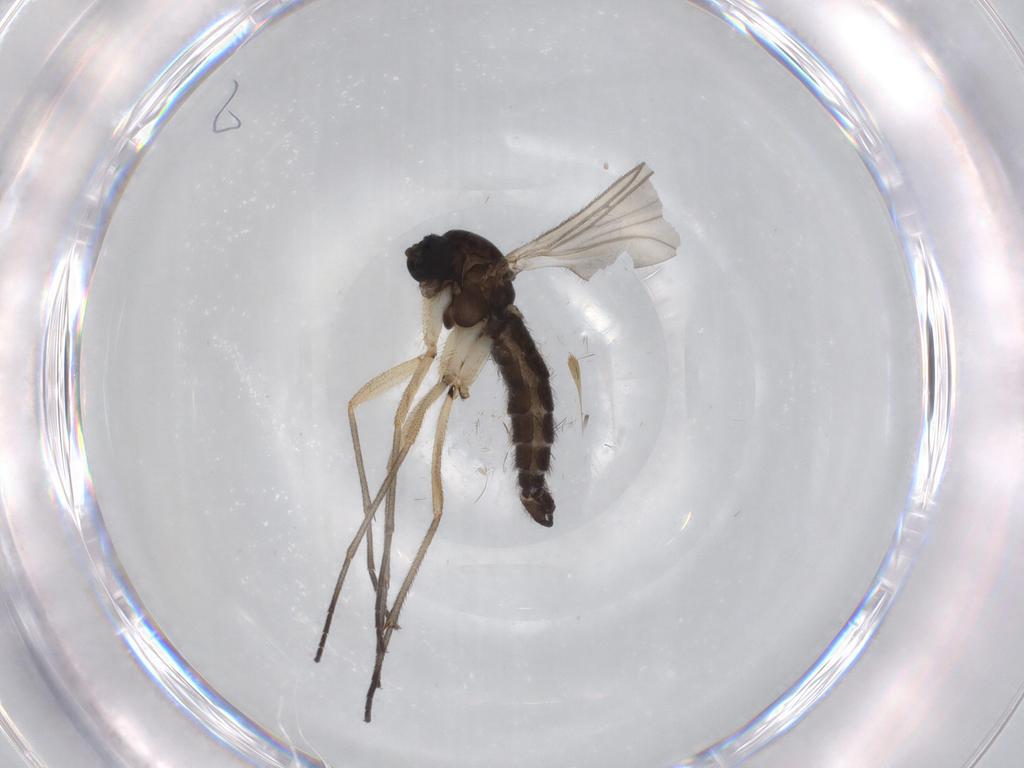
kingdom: Animalia
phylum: Arthropoda
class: Insecta
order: Diptera
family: Sciaridae
